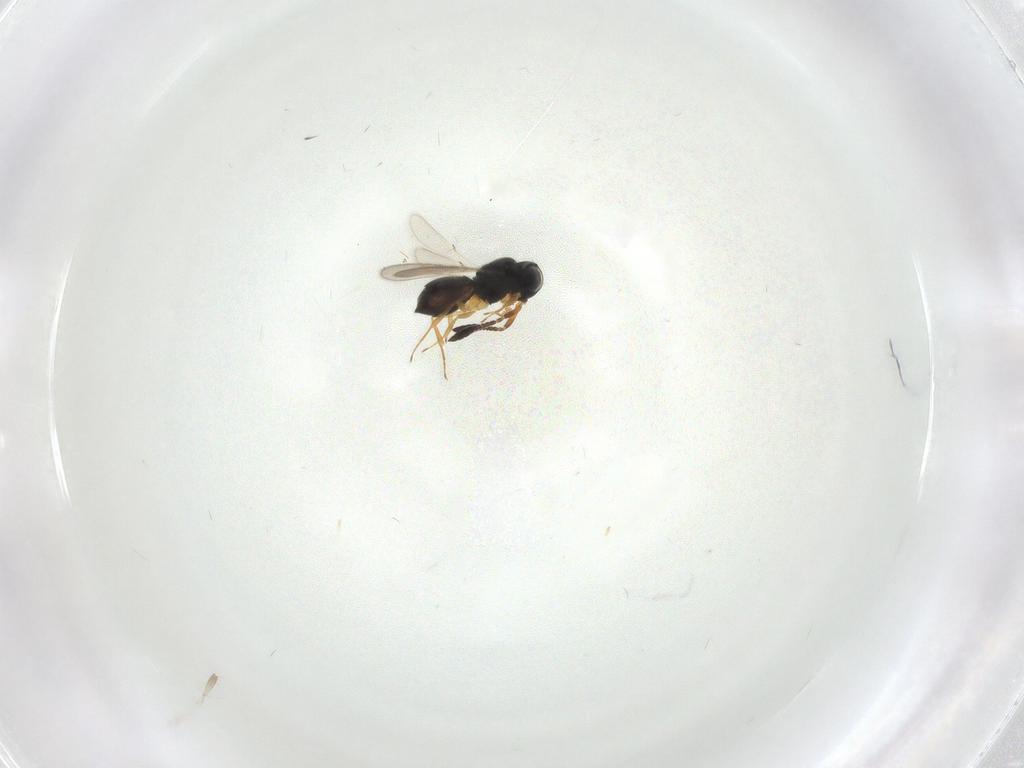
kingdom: Animalia
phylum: Arthropoda
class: Insecta
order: Hymenoptera
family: Scelionidae
